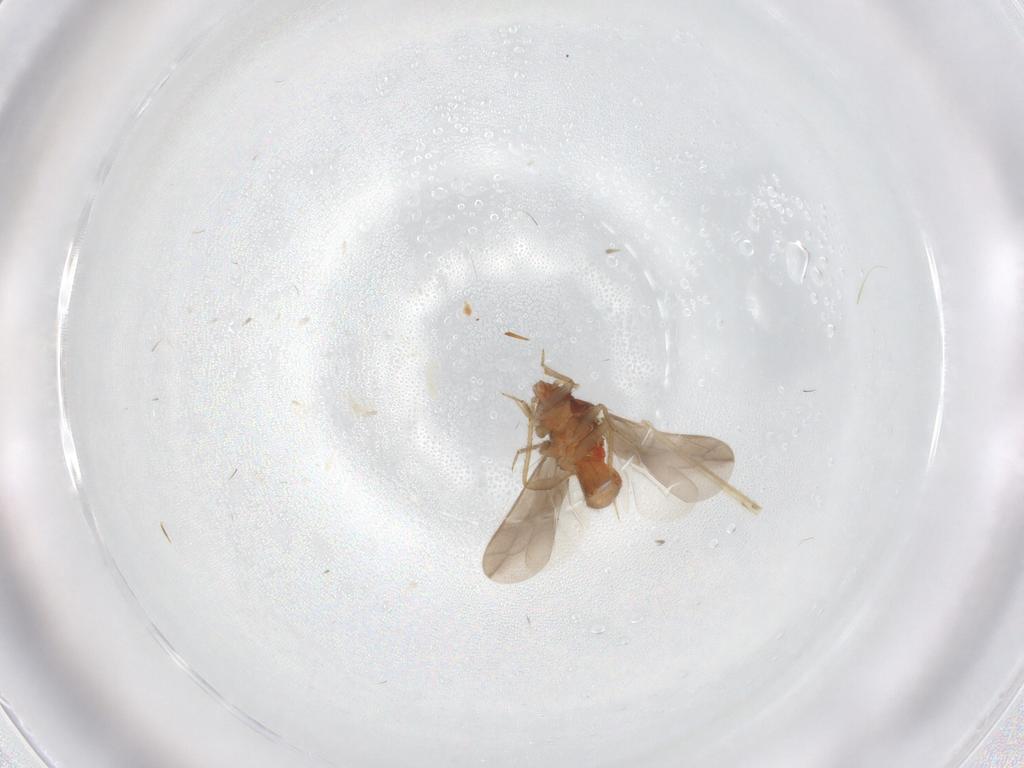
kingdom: Animalia
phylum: Arthropoda
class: Insecta
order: Hemiptera
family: Ceratocombidae
